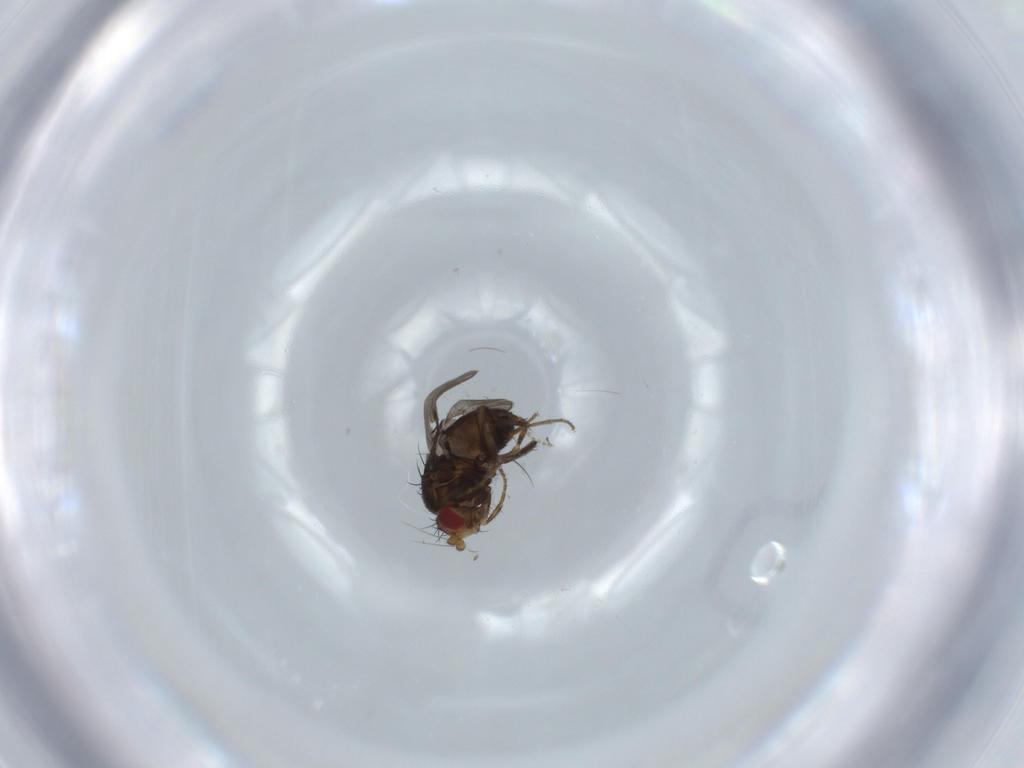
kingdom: Animalia
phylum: Arthropoda
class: Insecta
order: Diptera
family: Sphaeroceridae
